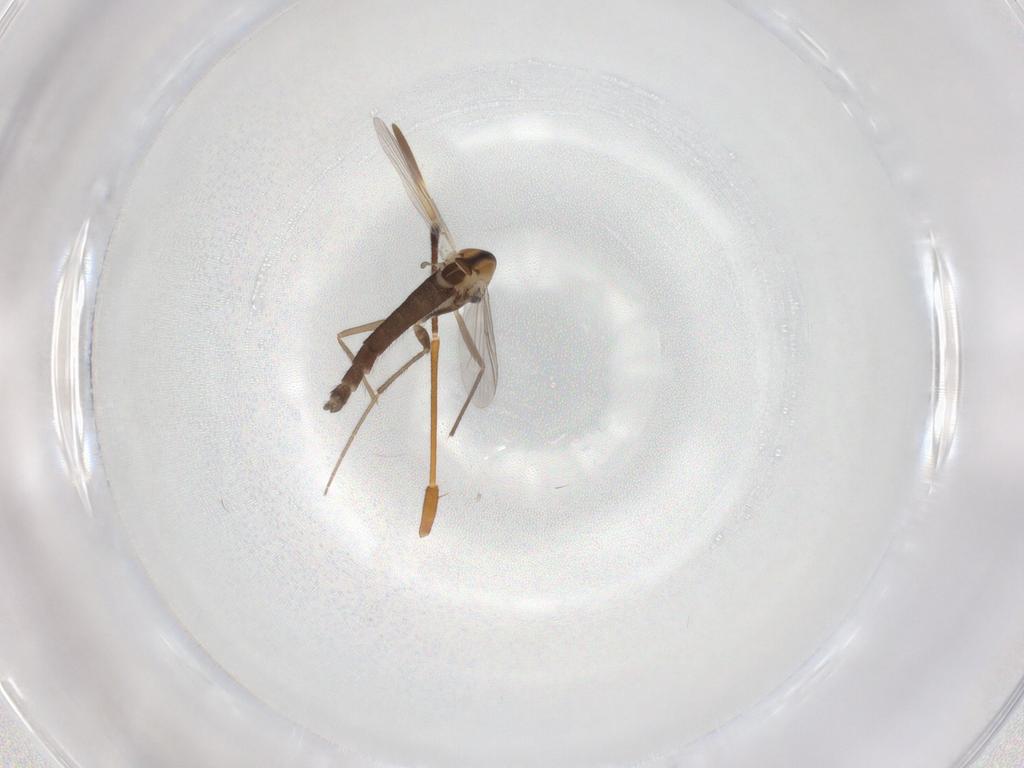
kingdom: Animalia
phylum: Arthropoda
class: Insecta
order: Diptera
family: Chironomidae
